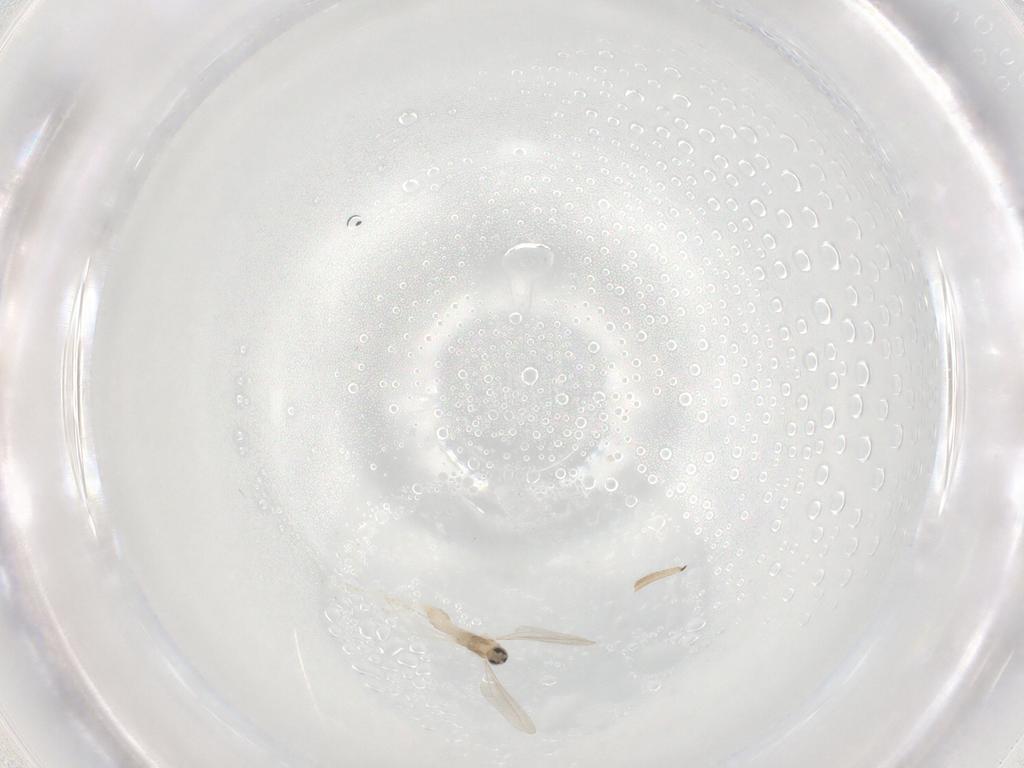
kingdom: Animalia
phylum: Arthropoda
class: Insecta
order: Diptera
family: Sciaridae
